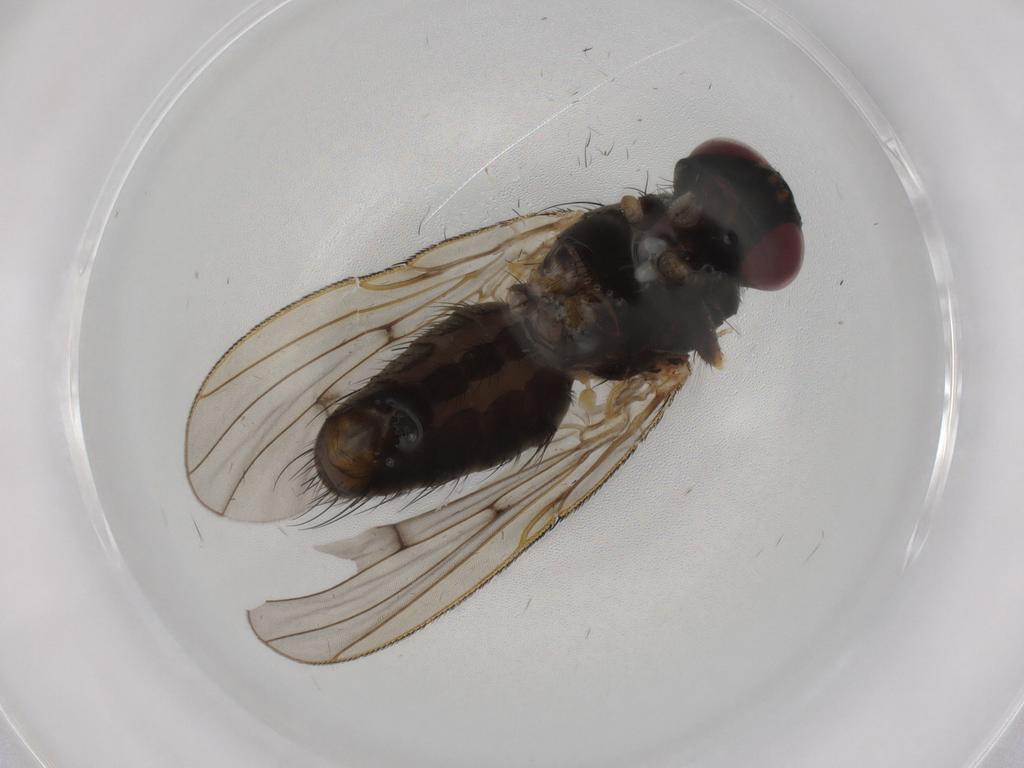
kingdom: Animalia
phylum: Arthropoda
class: Insecta
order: Diptera
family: Muscidae
